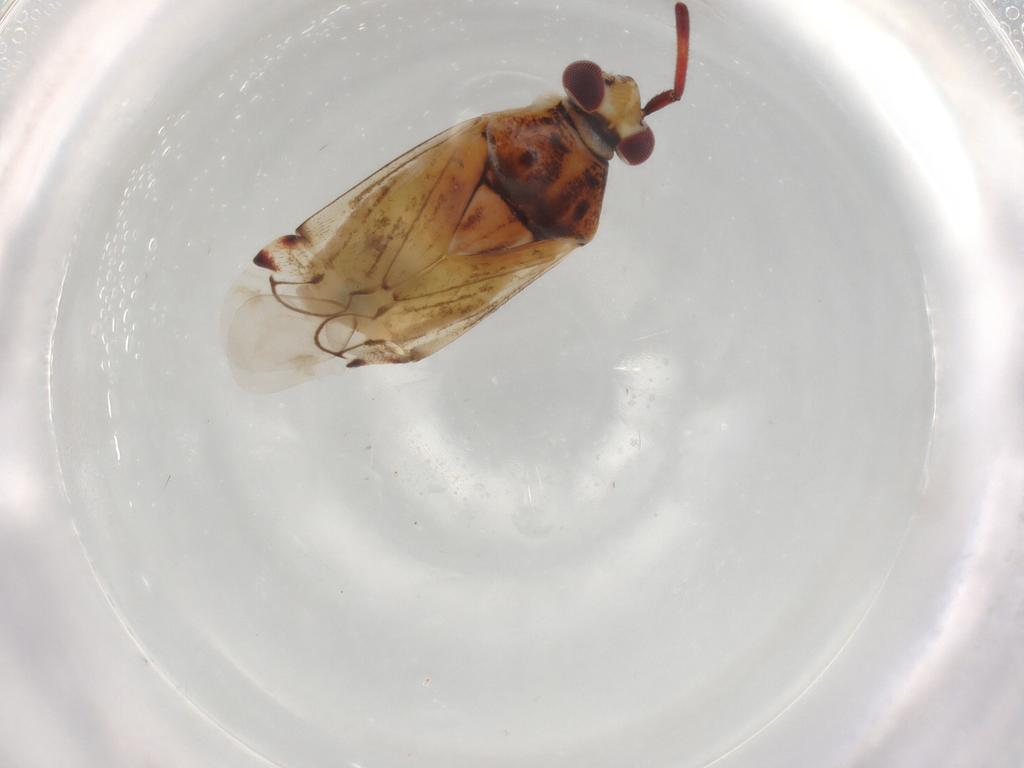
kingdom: Animalia
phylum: Arthropoda
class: Insecta
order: Hemiptera
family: Miridae
